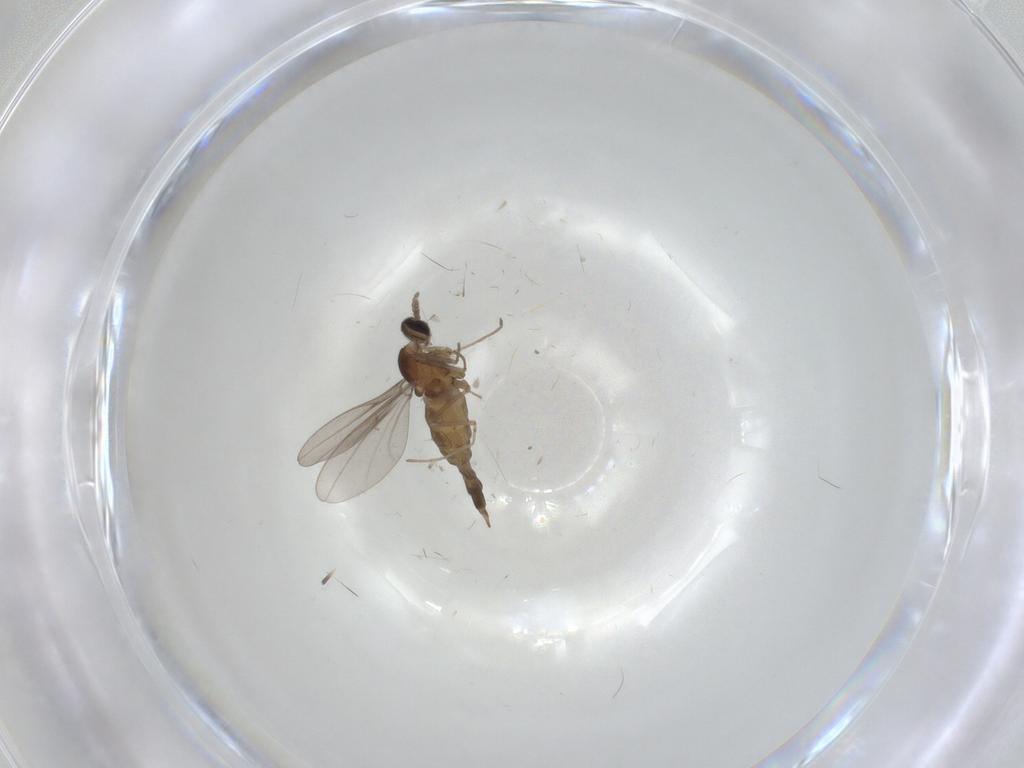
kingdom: Animalia
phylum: Arthropoda
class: Insecta
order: Diptera
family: Cecidomyiidae
